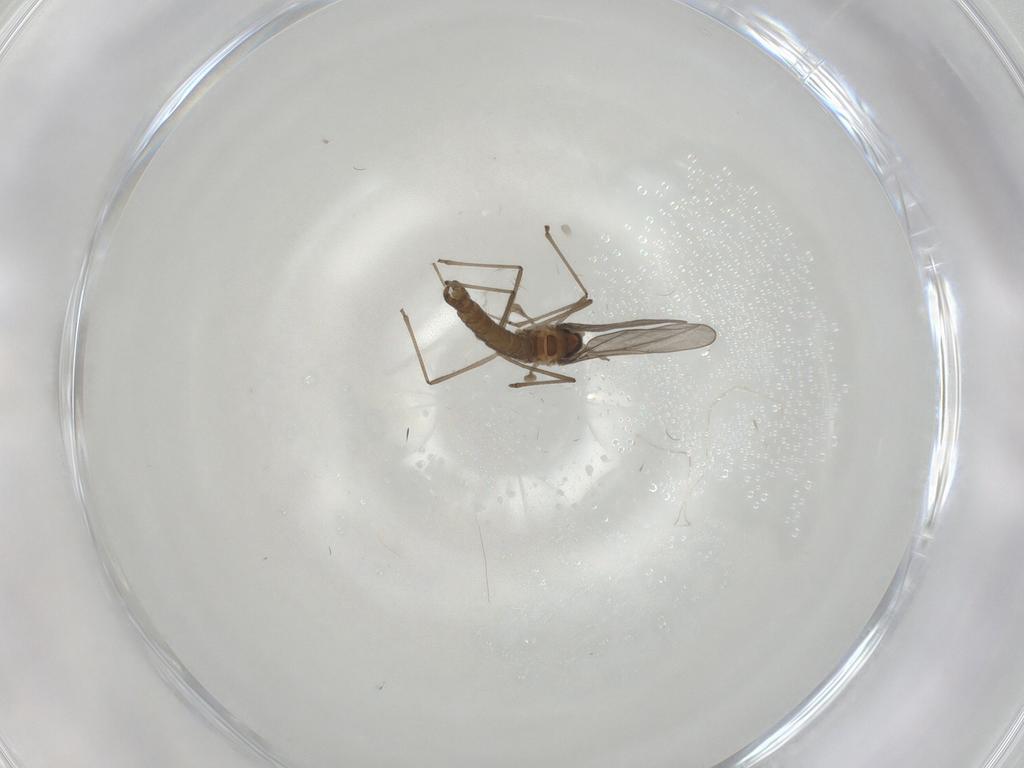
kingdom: Animalia
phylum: Arthropoda
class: Insecta
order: Diptera
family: Cecidomyiidae
